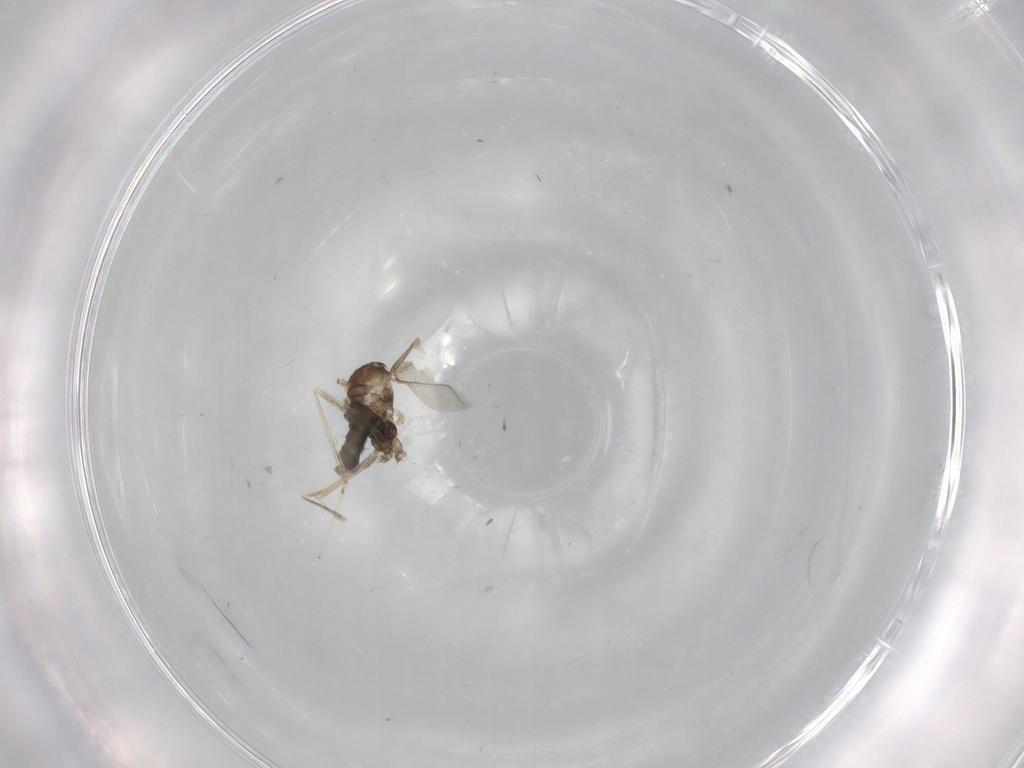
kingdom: Animalia
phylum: Arthropoda
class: Insecta
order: Diptera
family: Cecidomyiidae
